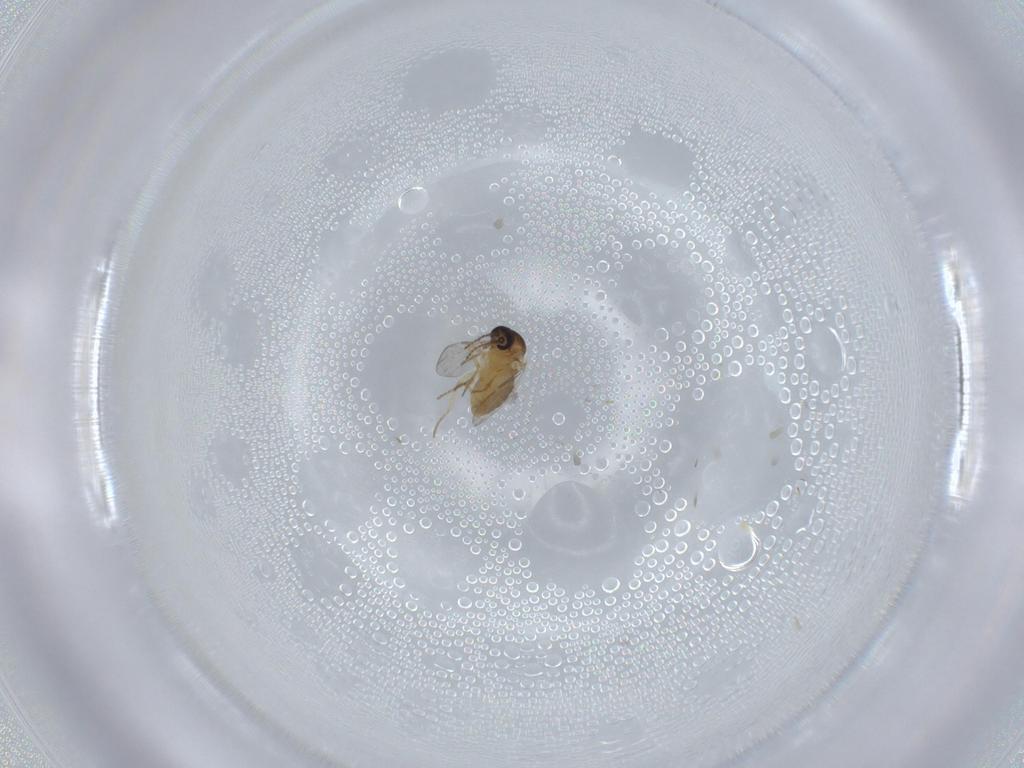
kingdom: Animalia
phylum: Arthropoda
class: Insecta
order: Diptera
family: Ceratopogonidae
